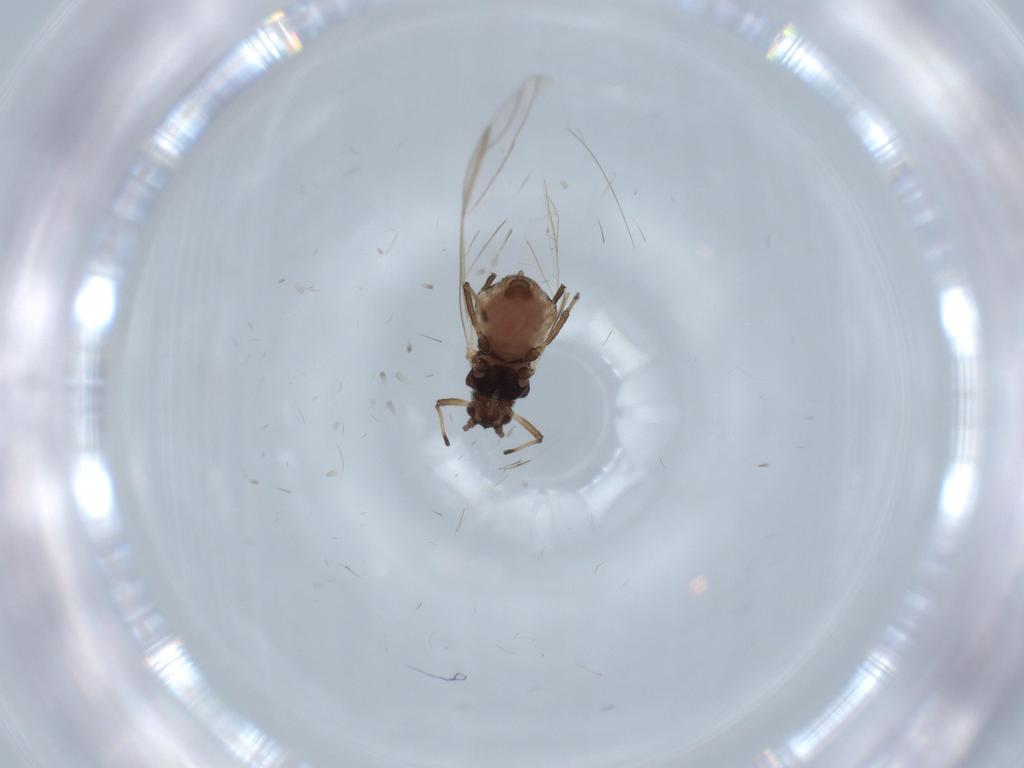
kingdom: Animalia
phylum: Arthropoda
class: Insecta
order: Hemiptera
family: Aphididae
